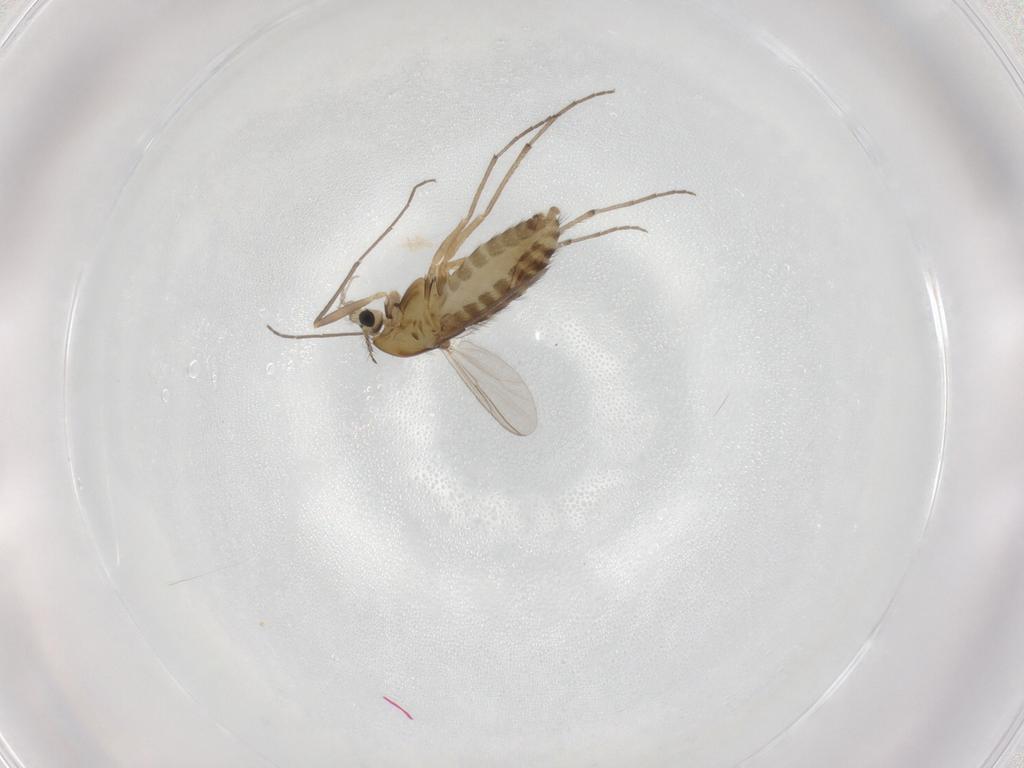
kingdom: Animalia
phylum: Arthropoda
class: Insecta
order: Diptera
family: Chironomidae
